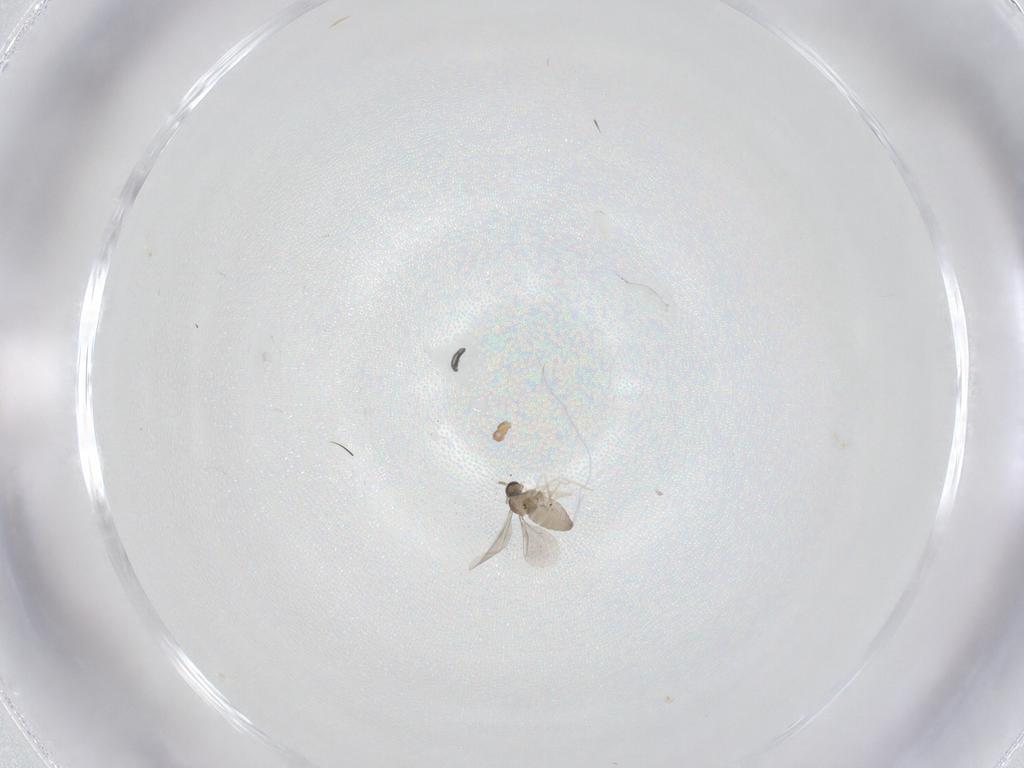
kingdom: Animalia
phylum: Arthropoda
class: Insecta
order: Diptera
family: Cecidomyiidae
